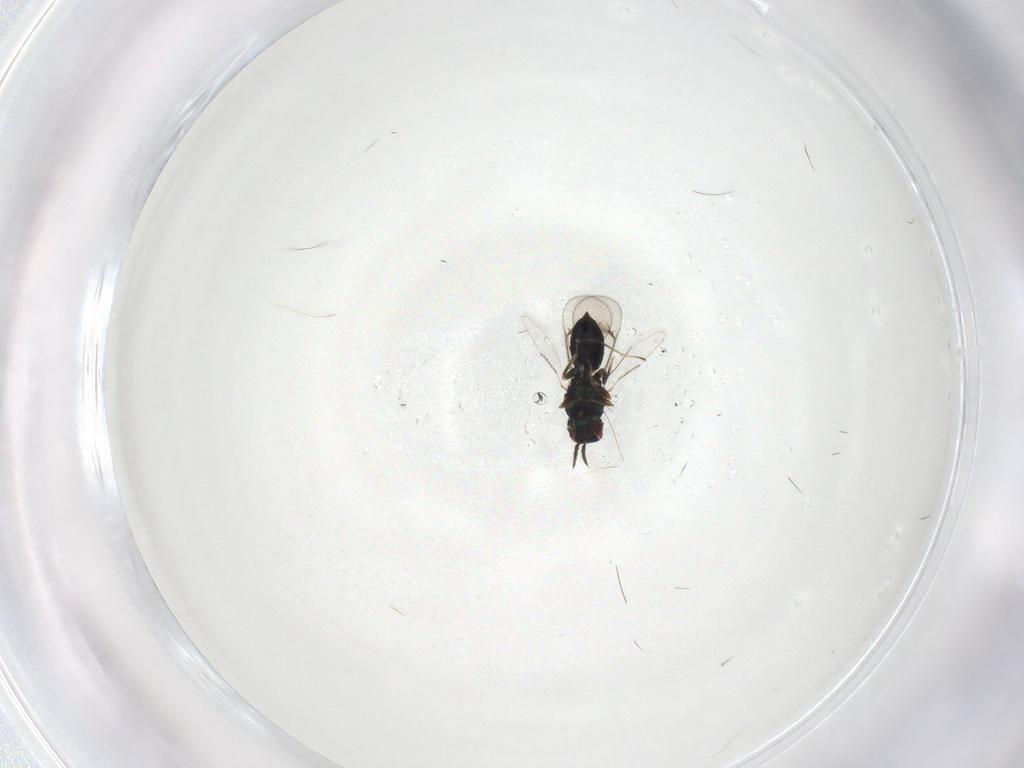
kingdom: Animalia
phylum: Arthropoda
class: Insecta
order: Hymenoptera
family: Eulophidae
